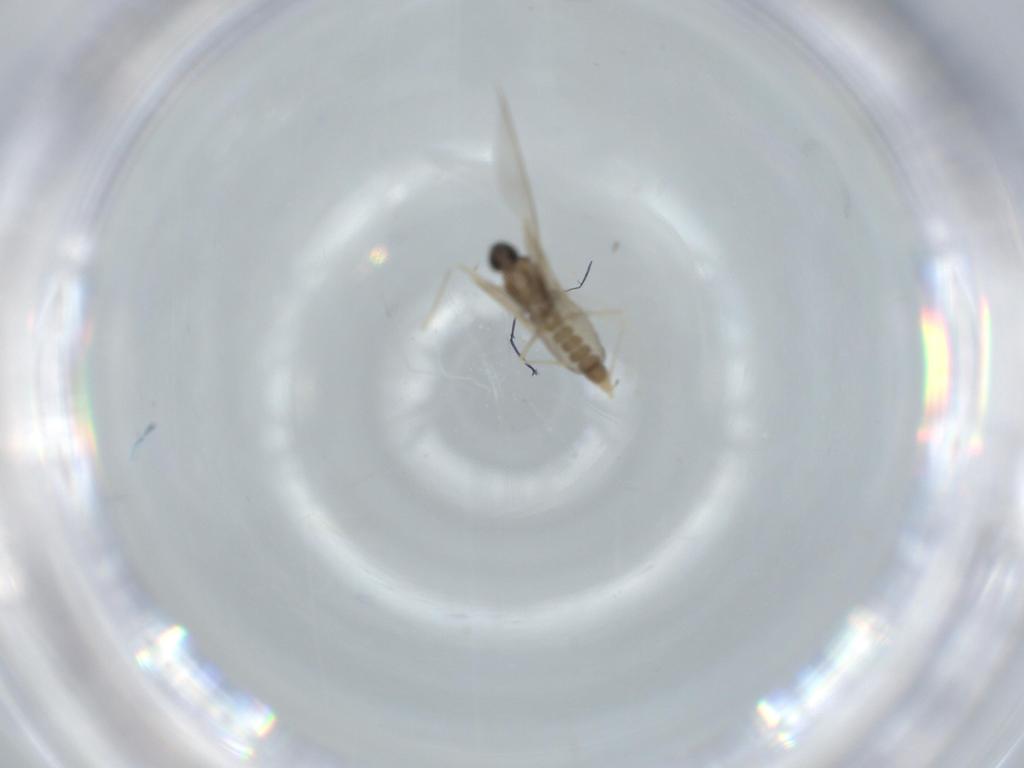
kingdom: Animalia
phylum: Arthropoda
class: Insecta
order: Diptera
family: Cecidomyiidae
